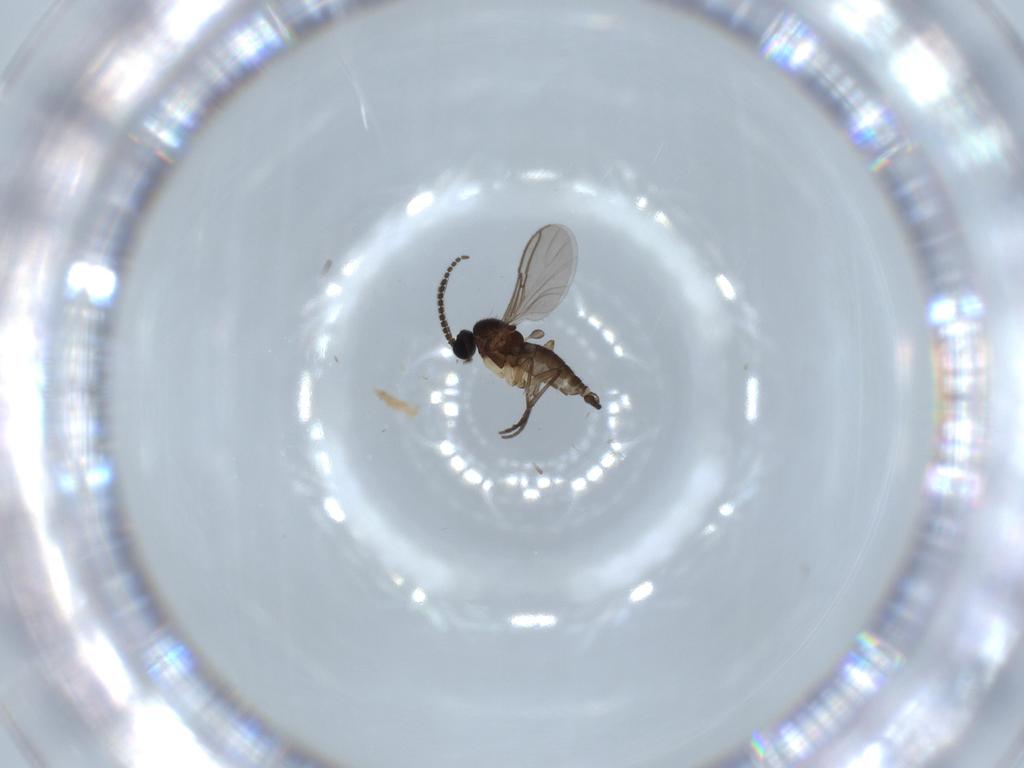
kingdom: Animalia
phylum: Arthropoda
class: Insecta
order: Diptera
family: Sciaridae
